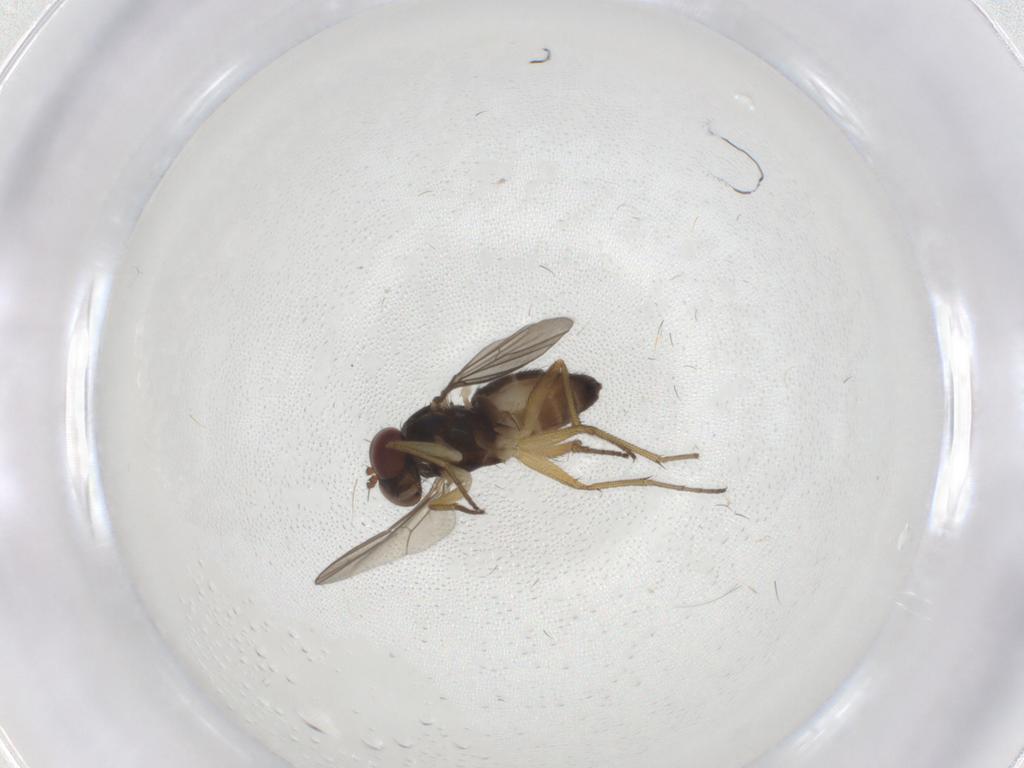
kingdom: Animalia
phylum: Arthropoda
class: Insecta
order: Diptera
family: Dolichopodidae
